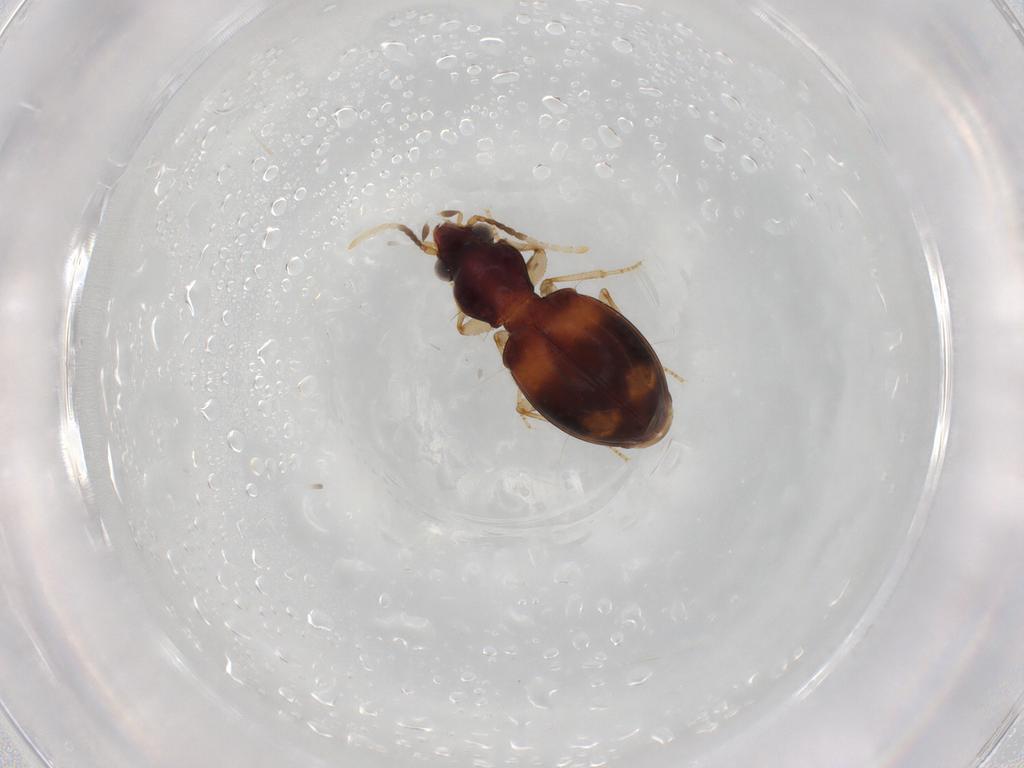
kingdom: Animalia
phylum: Arthropoda
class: Insecta
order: Coleoptera
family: Carabidae
